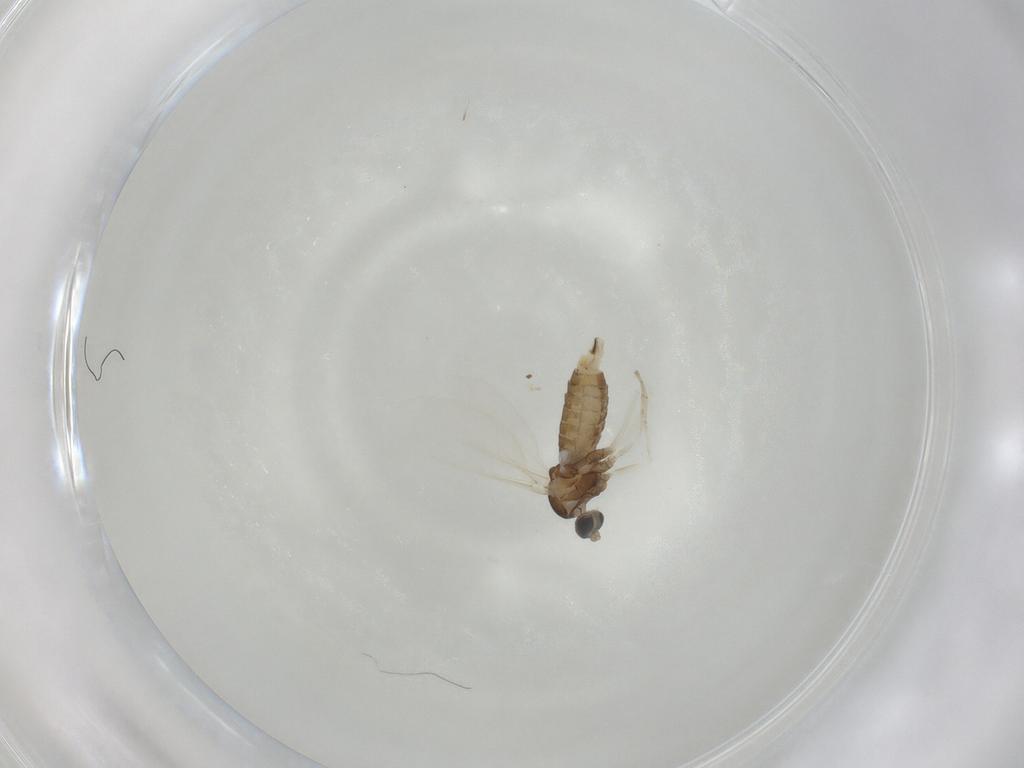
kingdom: Animalia
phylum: Arthropoda
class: Insecta
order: Diptera
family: Cecidomyiidae
